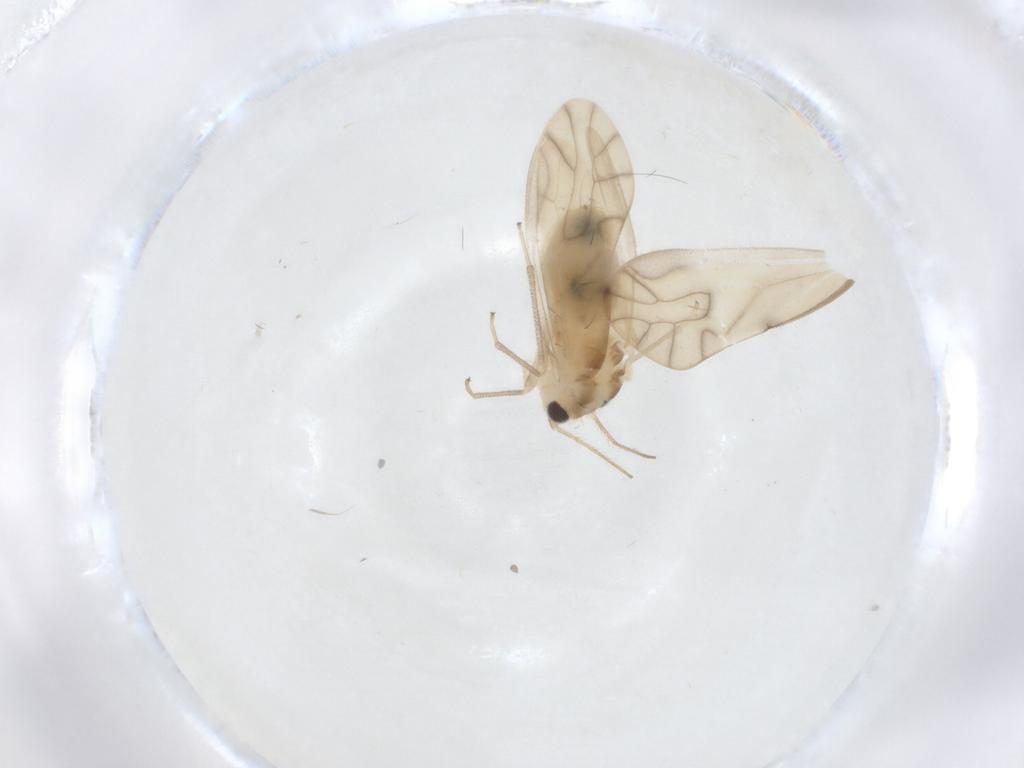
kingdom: Animalia
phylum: Arthropoda
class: Insecta
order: Psocodea
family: Caeciliusidae
